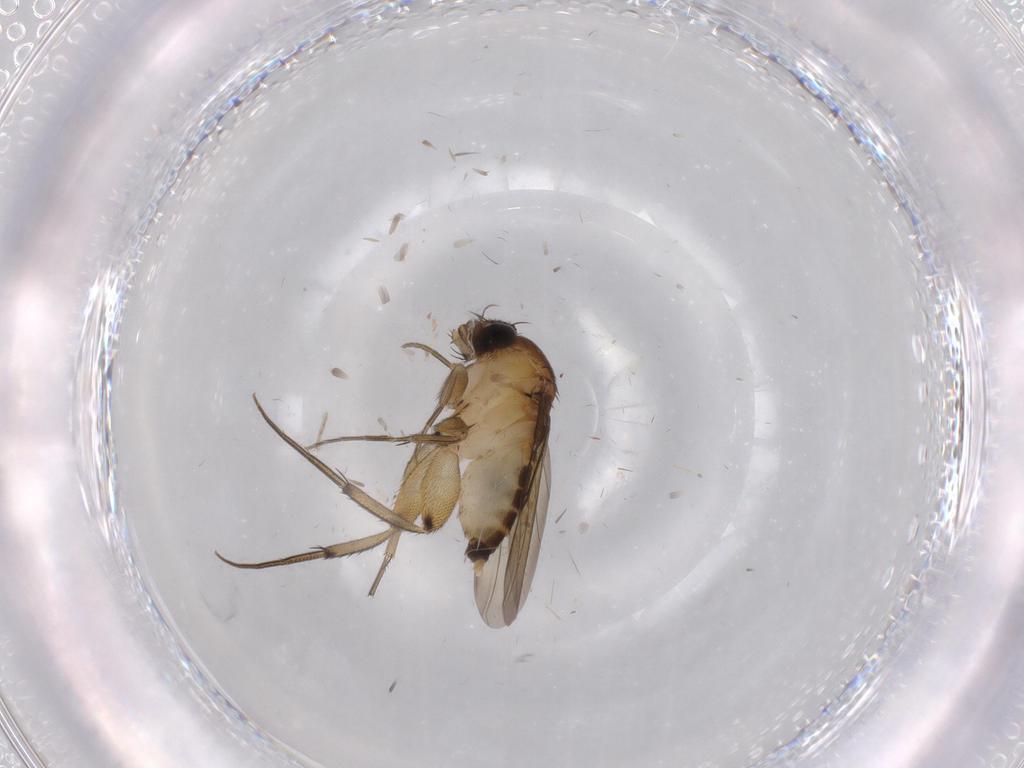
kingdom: Animalia
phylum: Arthropoda
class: Insecta
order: Diptera
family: Phoridae
